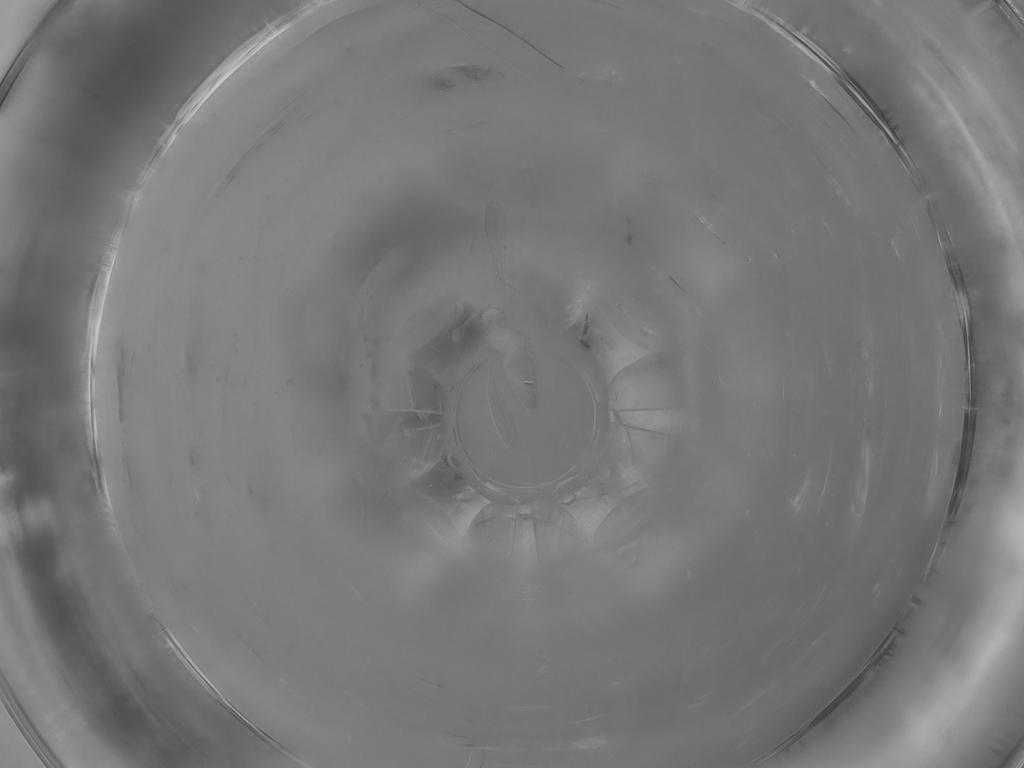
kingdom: Animalia
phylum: Arthropoda
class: Insecta
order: Diptera
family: Cecidomyiidae
